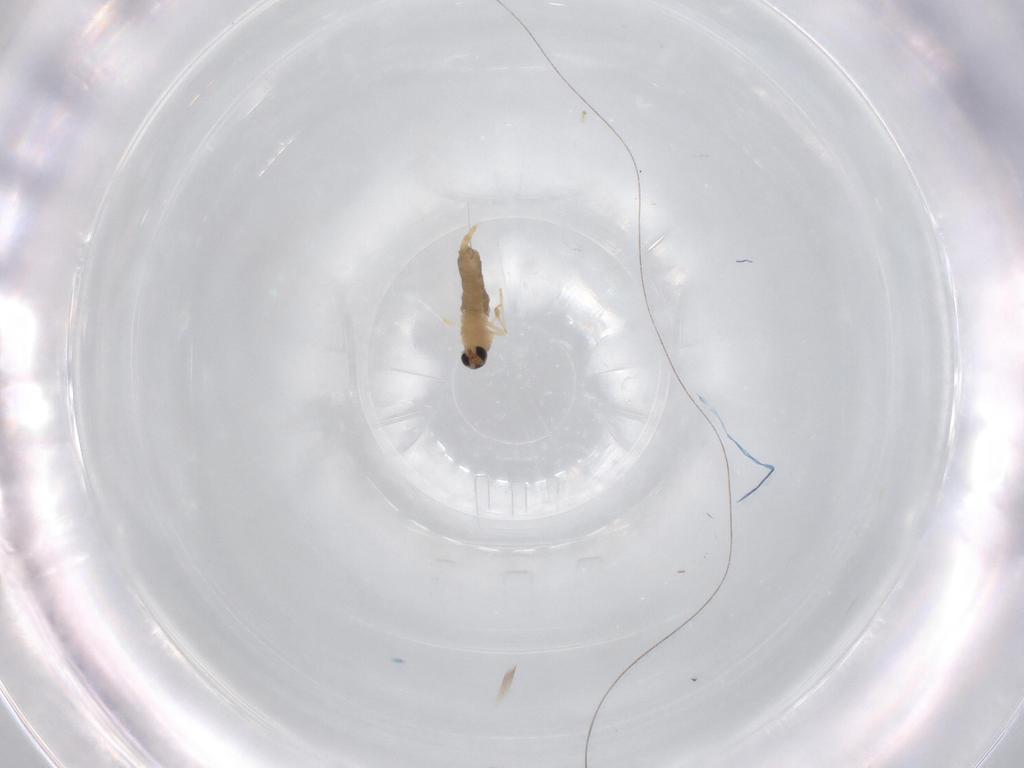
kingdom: Animalia
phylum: Arthropoda
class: Insecta
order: Diptera
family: Cecidomyiidae
